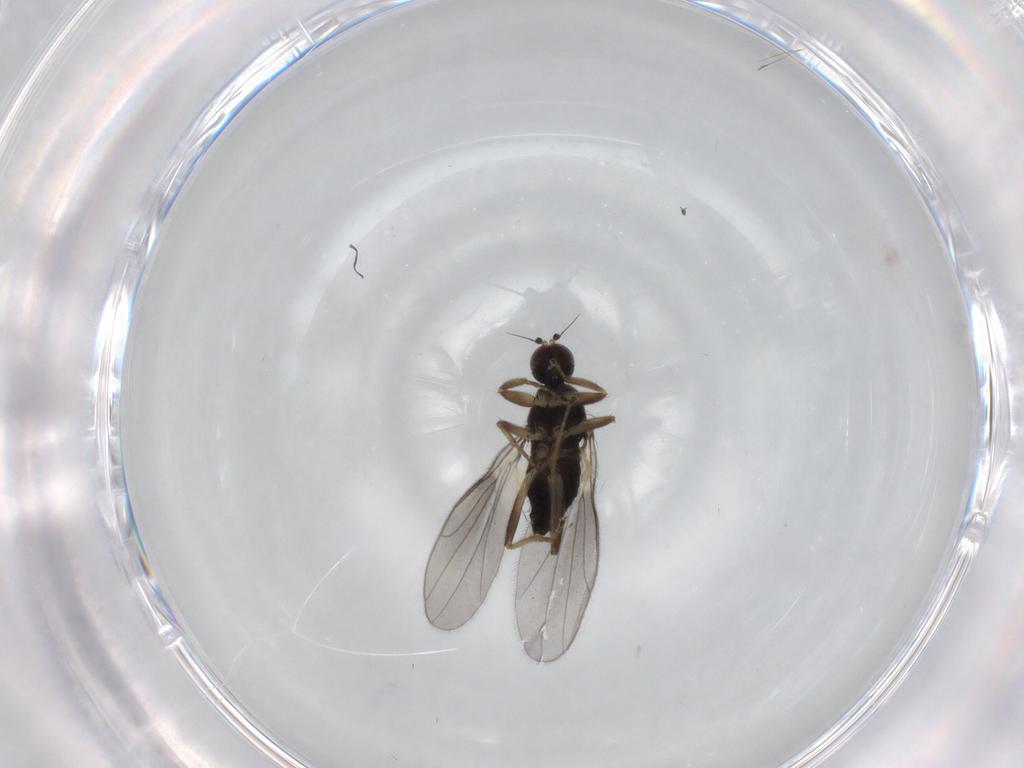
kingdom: Animalia
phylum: Arthropoda
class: Insecta
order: Diptera
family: Hybotidae
